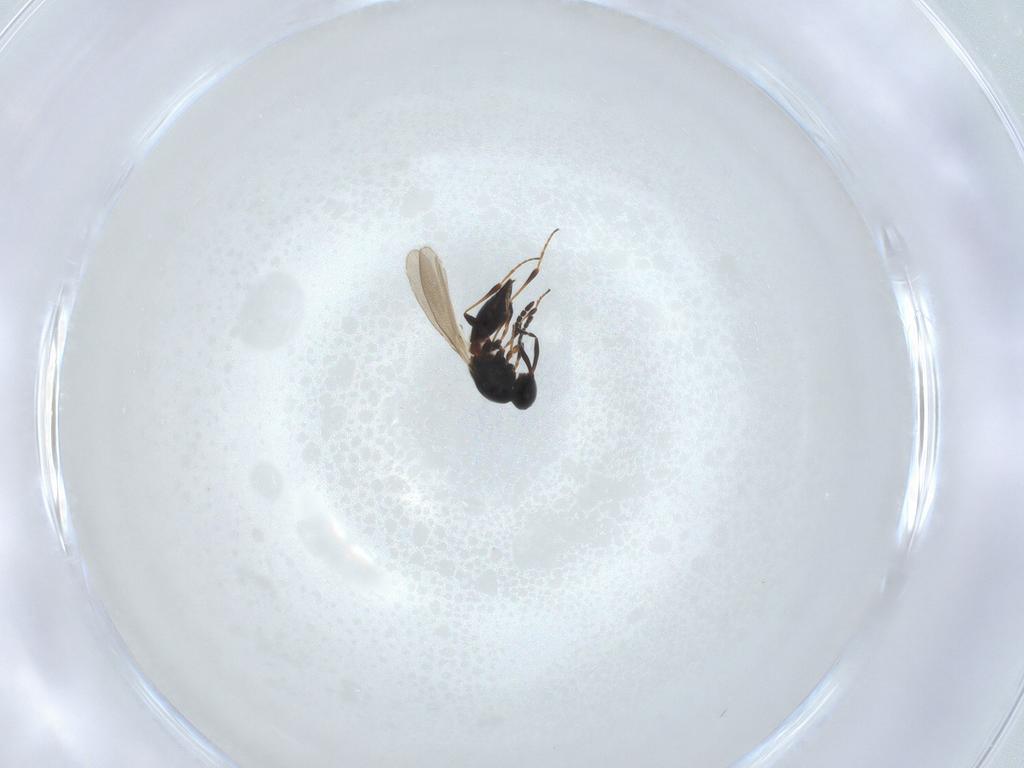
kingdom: Animalia
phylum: Arthropoda
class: Insecta
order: Hymenoptera
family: Platygastridae
